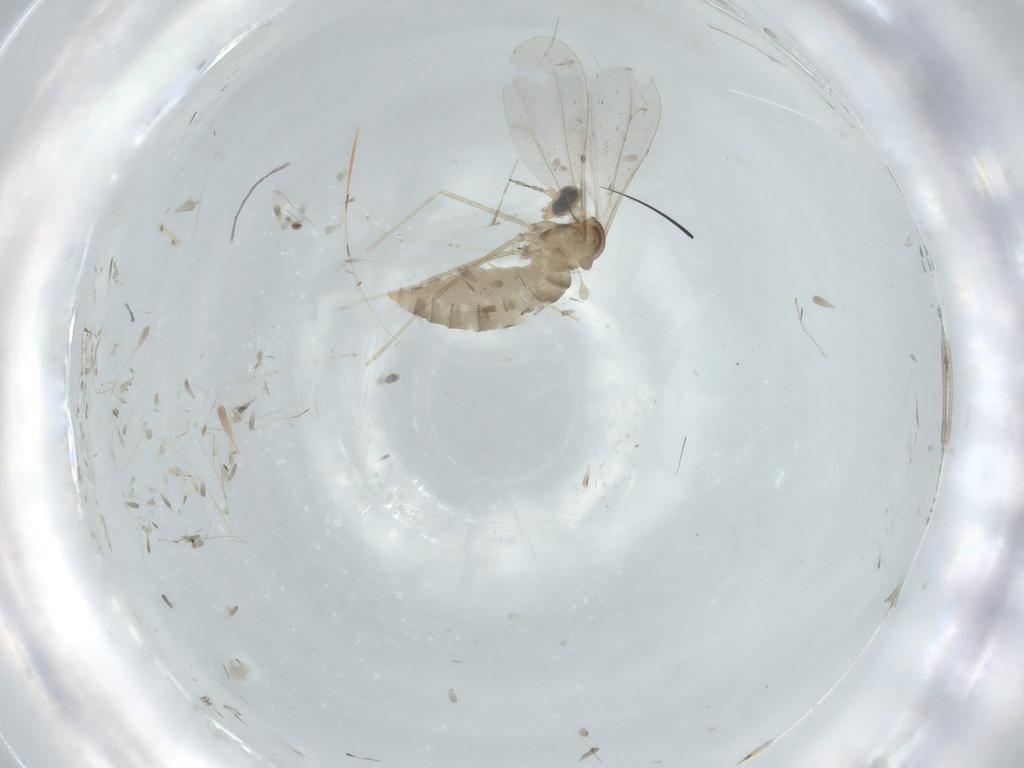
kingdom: Animalia
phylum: Arthropoda
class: Insecta
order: Diptera
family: Cecidomyiidae
